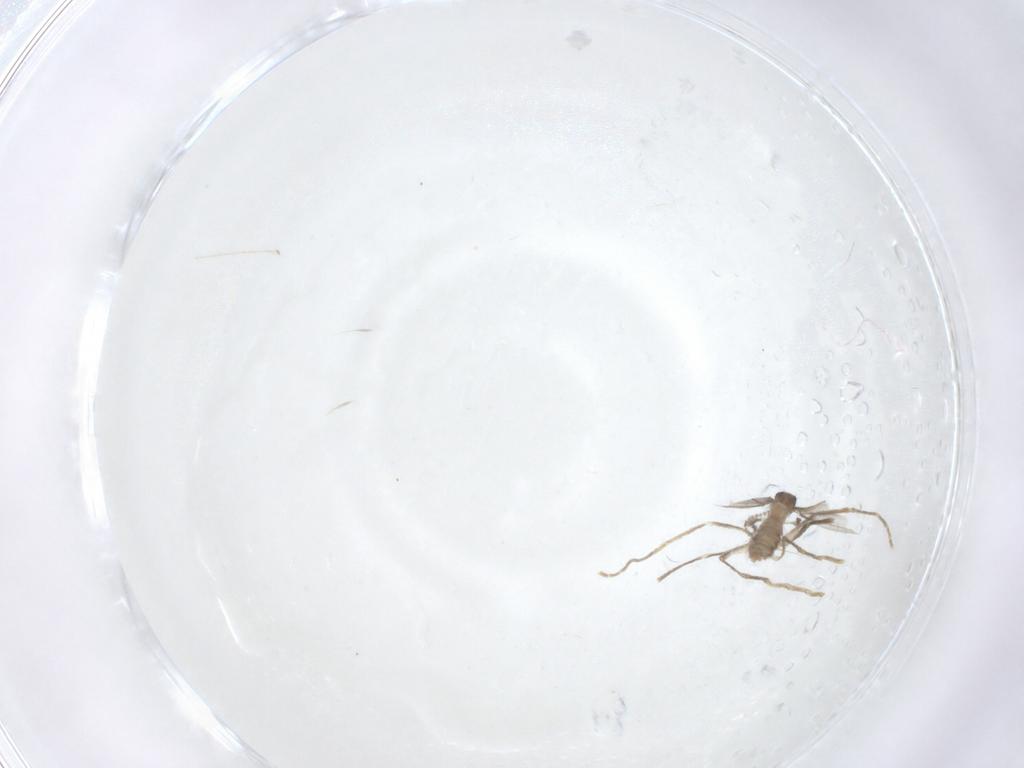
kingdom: Animalia
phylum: Arthropoda
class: Insecta
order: Diptera
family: Cecidomyiidae
